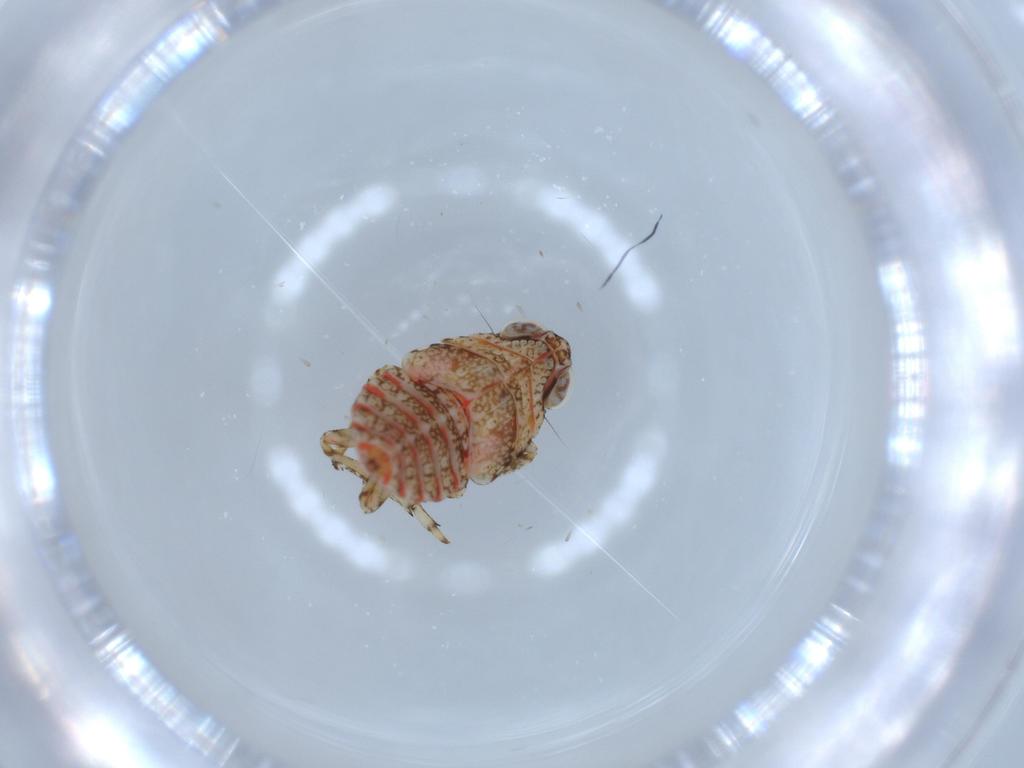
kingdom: Animalia
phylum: Arthropoda
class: Insecta
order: Hemiptera
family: Issidae
